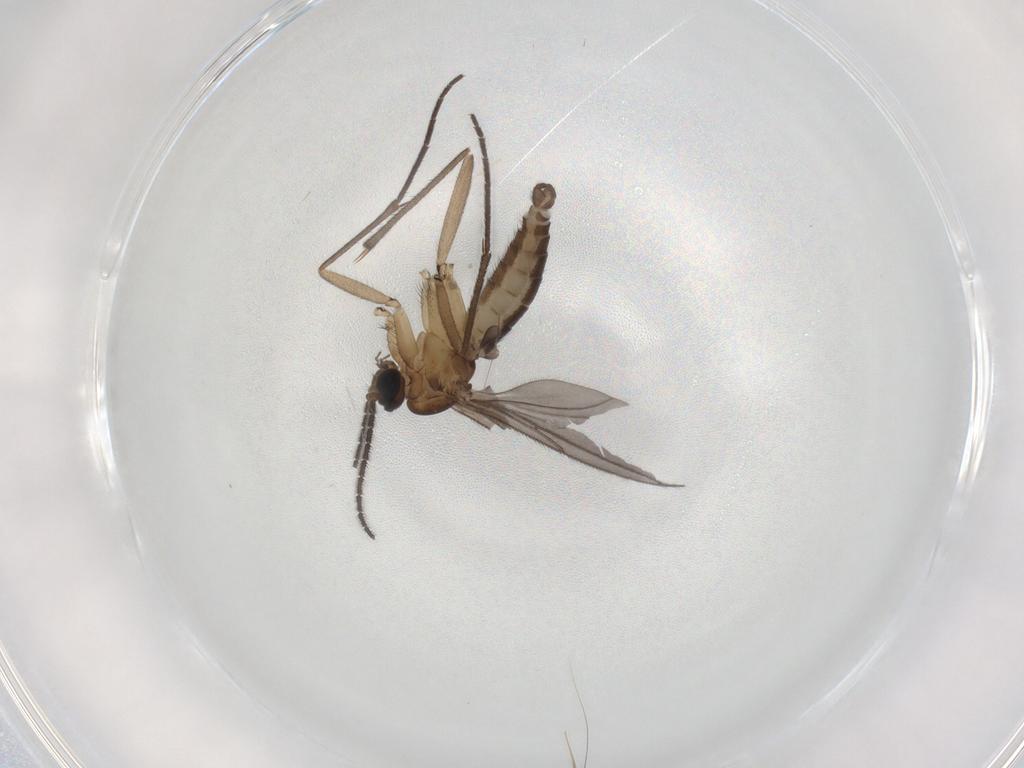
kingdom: Animalia
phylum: Arthropoda
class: Insecta
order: Diptera
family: Sciaridae
